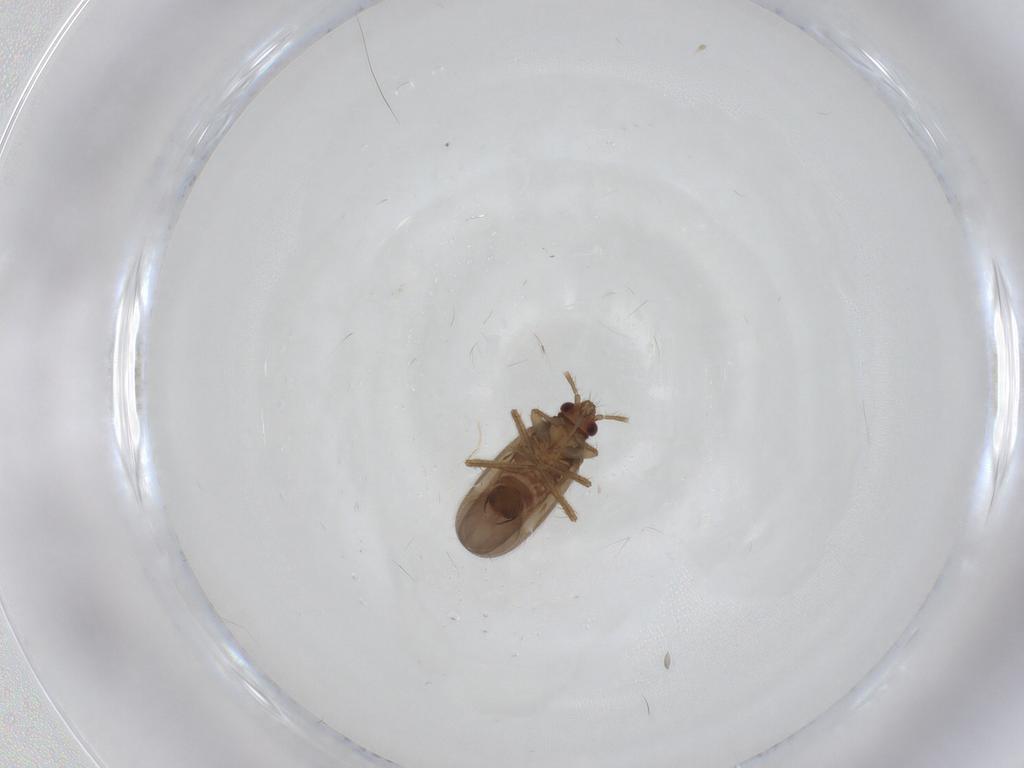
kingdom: Animalia
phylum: Arthropoda
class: Insecta
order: Hemiptera
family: Ceratocombidae
